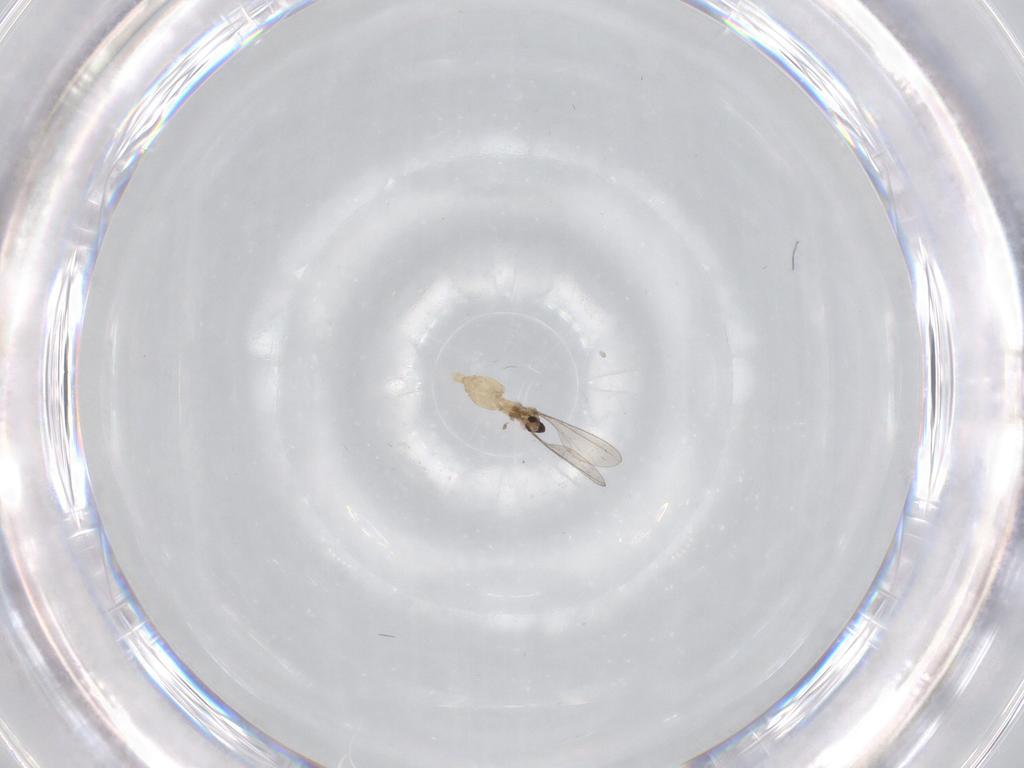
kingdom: Animalia
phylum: Arthropoda
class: Insecta
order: Diptera
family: Cecidomyiidae
